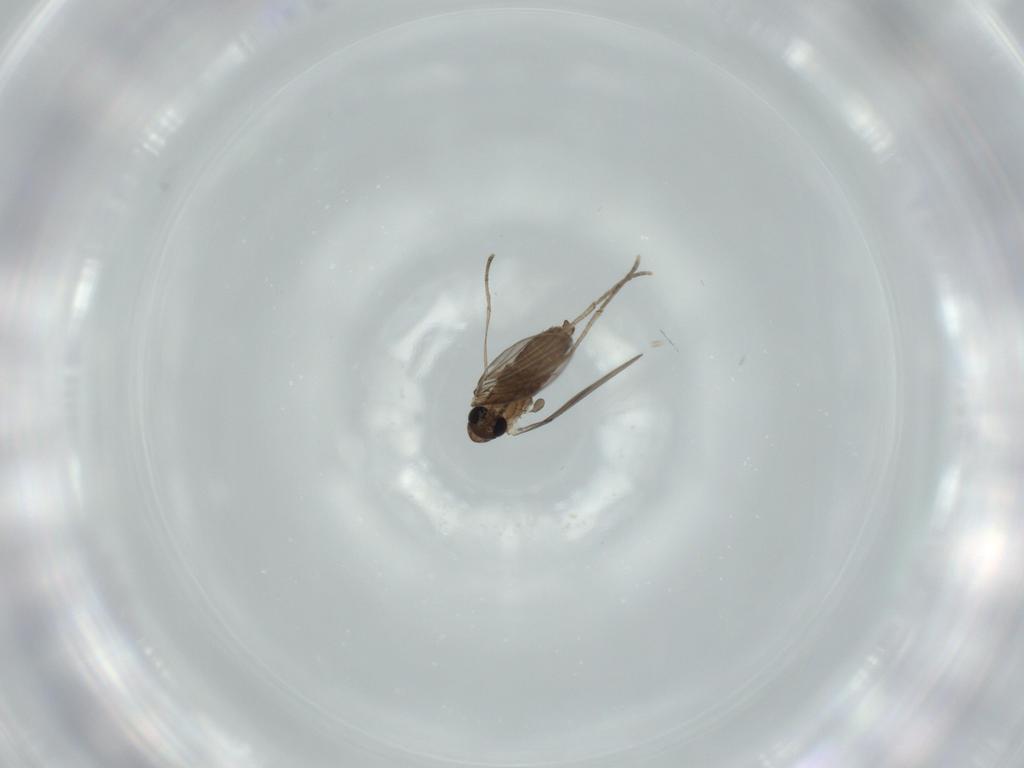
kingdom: Animalia
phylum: Arthropoda
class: Insecta
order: Diptera
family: Psychodidae
